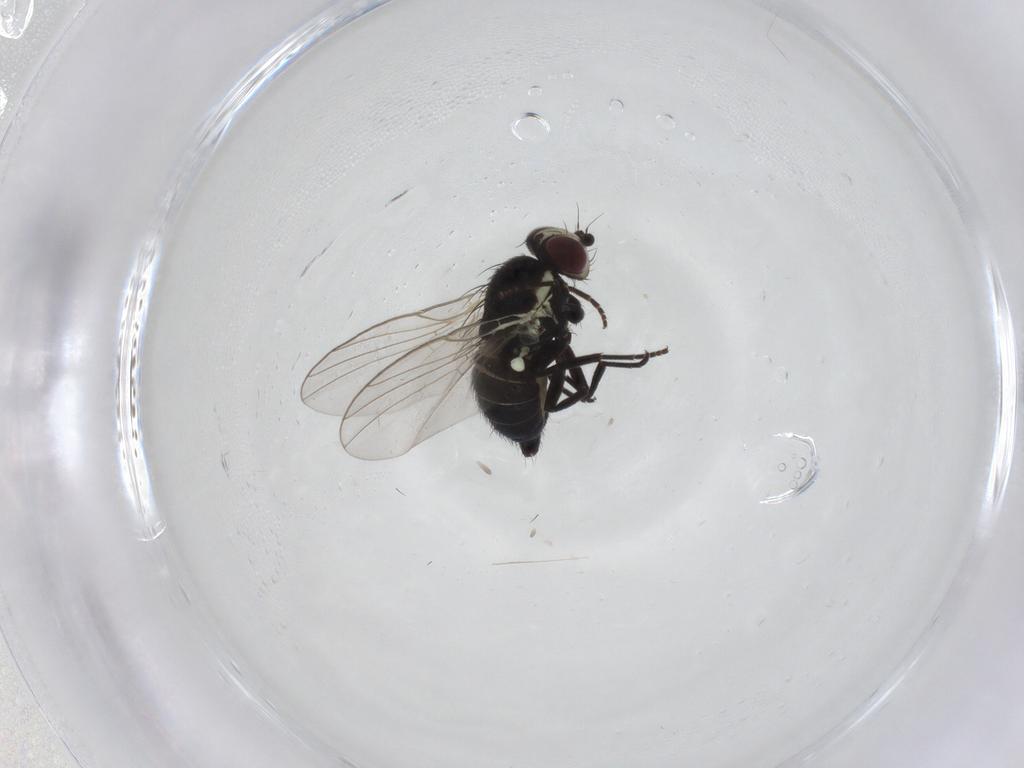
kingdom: Animalia
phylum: Arthropoda
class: Insecta
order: Diptera
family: Agromyzidae
